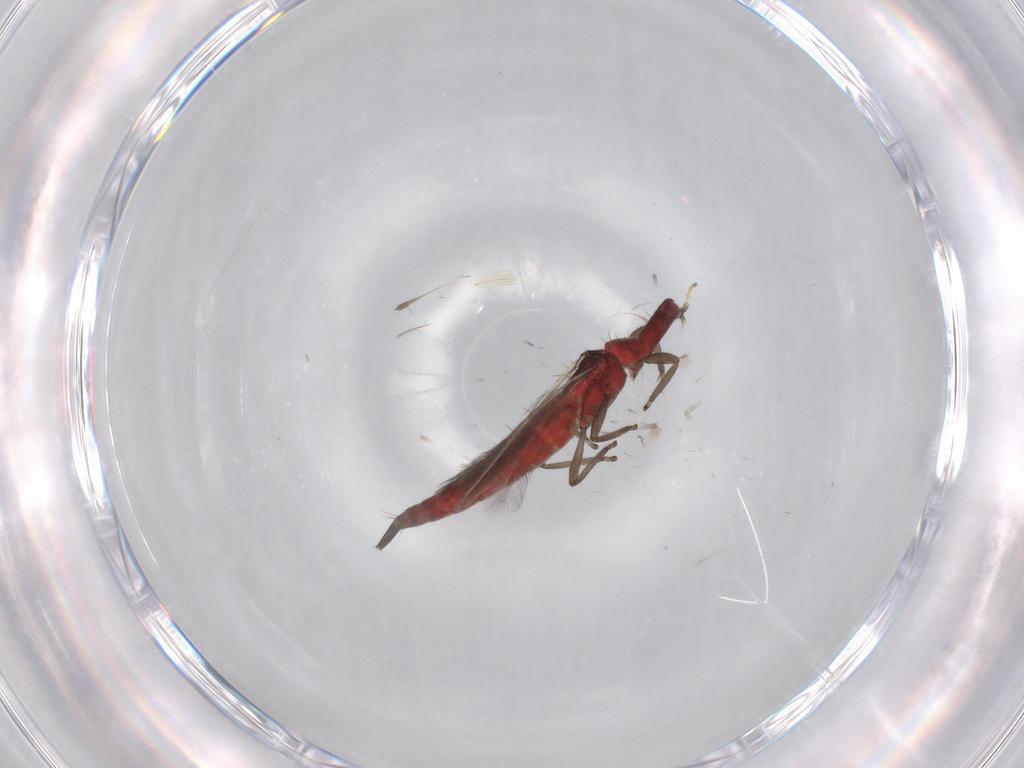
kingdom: Animalia
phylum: Arthropoda
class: Insecta
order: Thysanoptera
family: Phlaeothripidae
